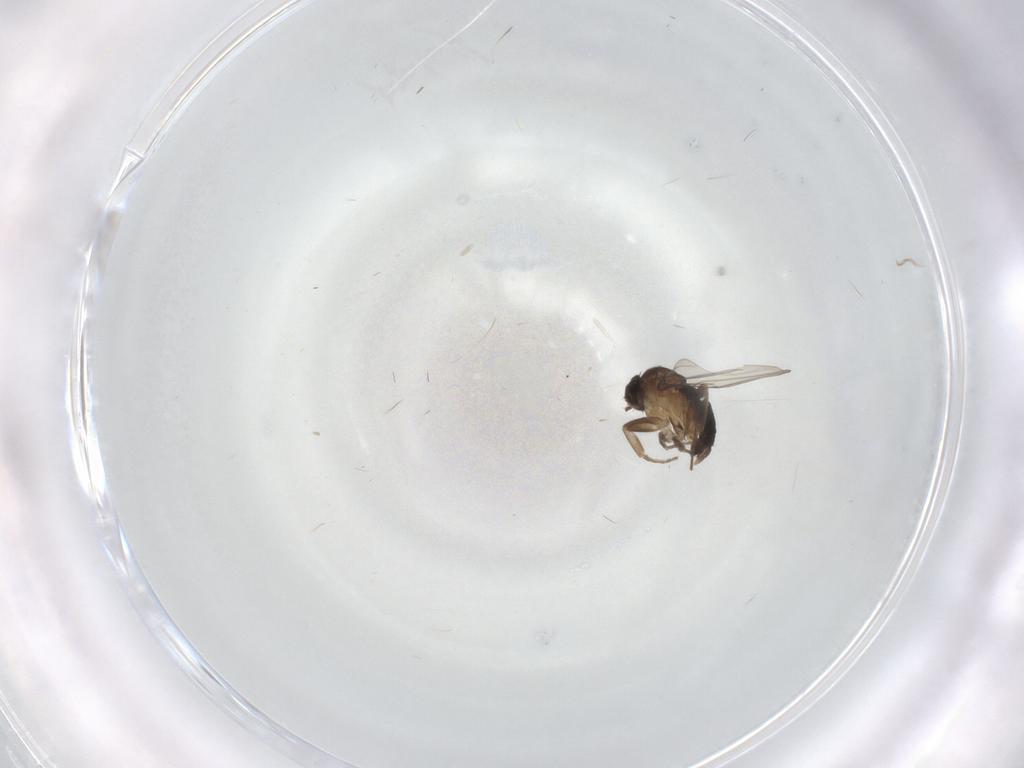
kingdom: Animalia
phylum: Arthropoda
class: Insecta
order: Diptera
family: Phoridae
